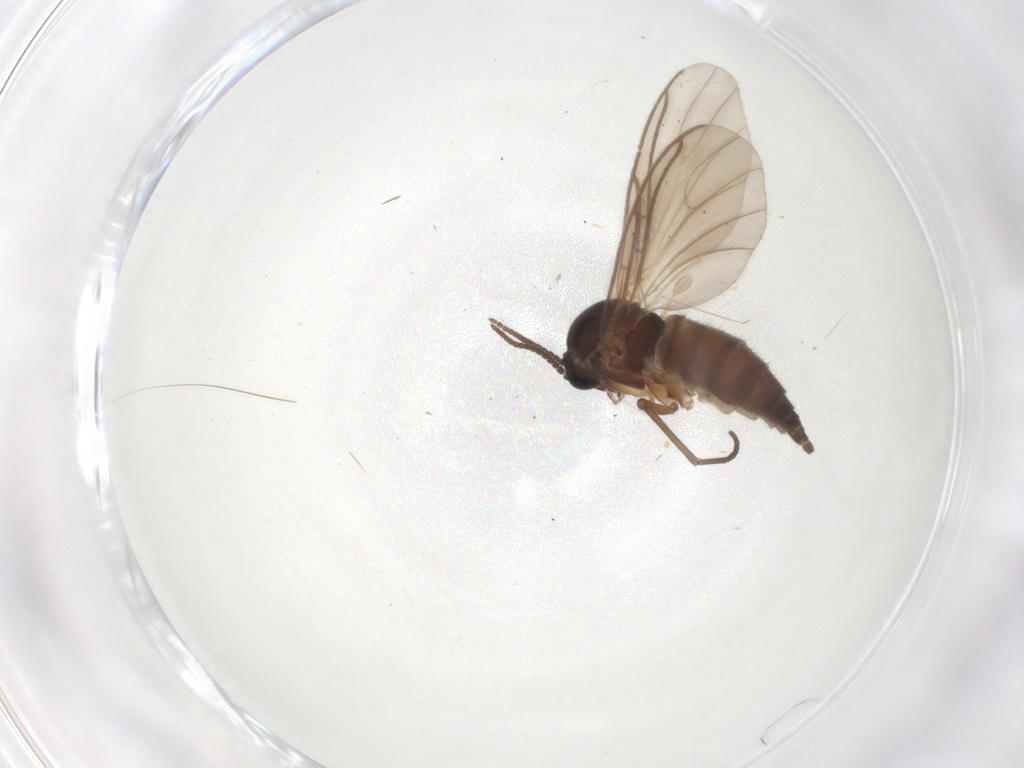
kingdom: Animalia
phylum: Arthropoda
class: Insecta
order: Diptera
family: Sciaridae
